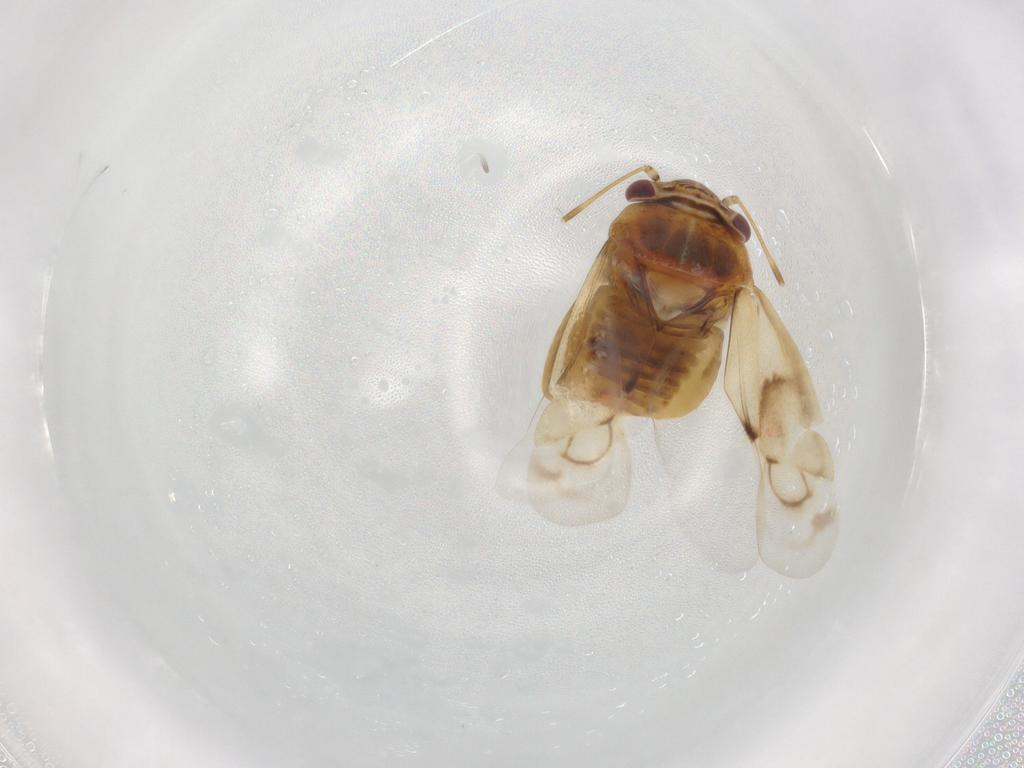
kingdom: Animalia
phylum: Arthropoda
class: Insecta
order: Hemiptera
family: Miridae
